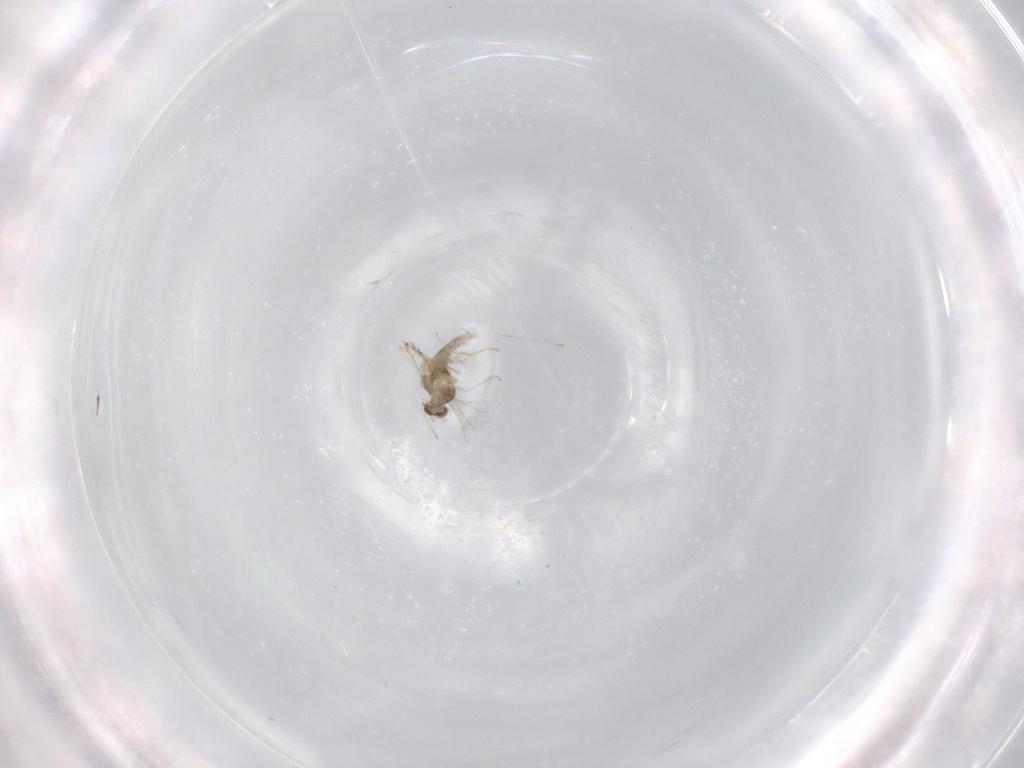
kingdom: Animalia
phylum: Arthropoda
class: Insecta
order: Diptera
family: Cecidomyiidae
